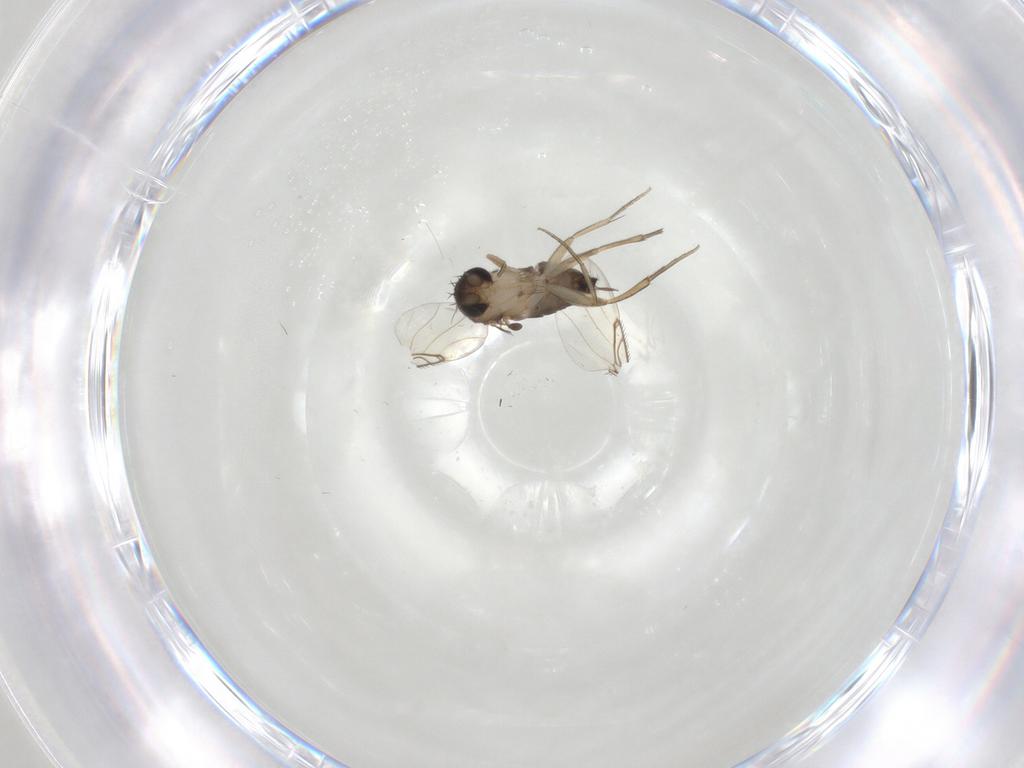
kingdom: Animalia
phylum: Arthropoda
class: Insecta
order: Diptera
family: Cecidomyiidae
